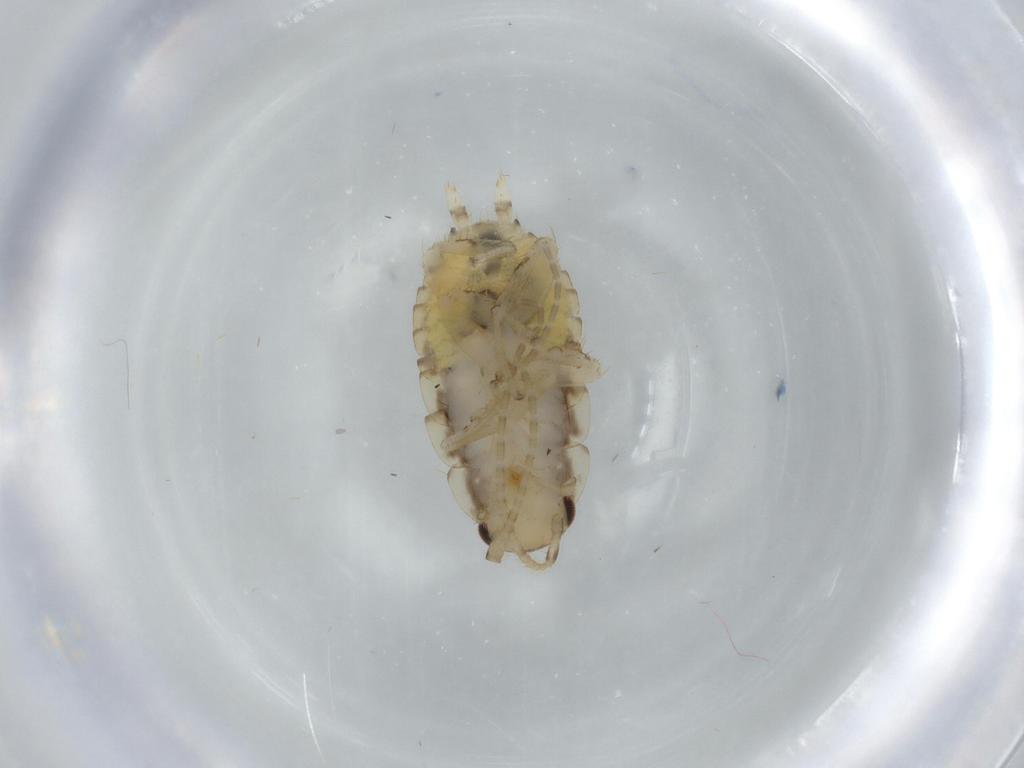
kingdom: Animalia
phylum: Arthropoda
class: Insecta
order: Blattodea
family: Ectobiidae
